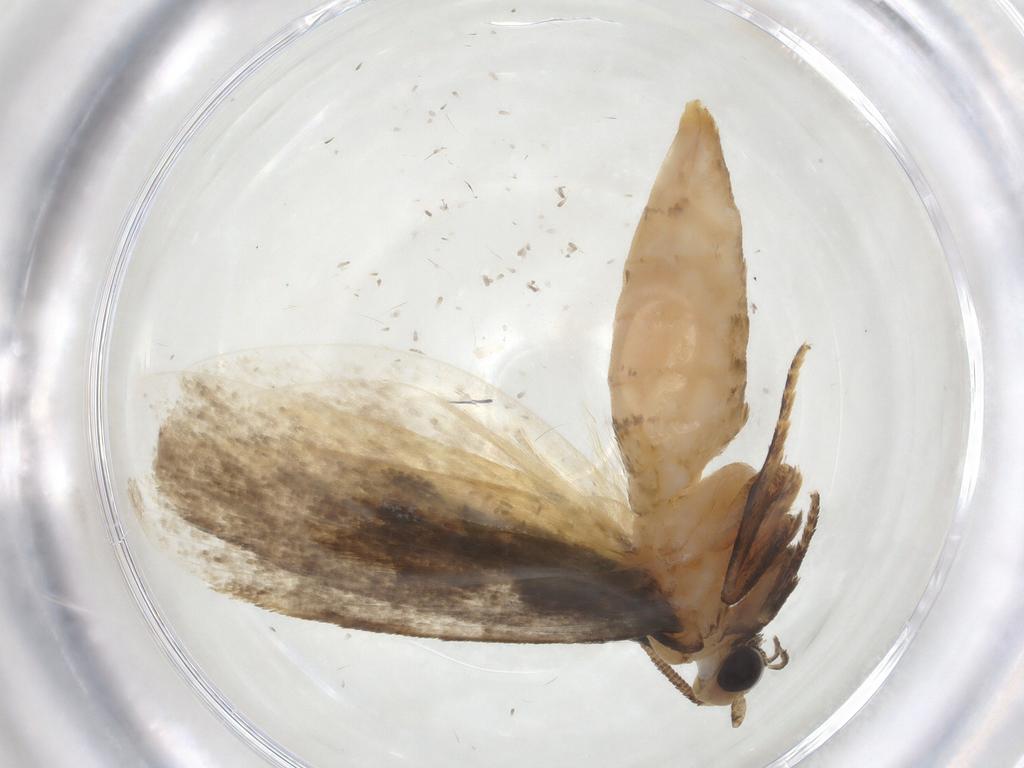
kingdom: Animalia
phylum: Arthropoda
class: Insecta
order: Lepidoptera
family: Tineidae
